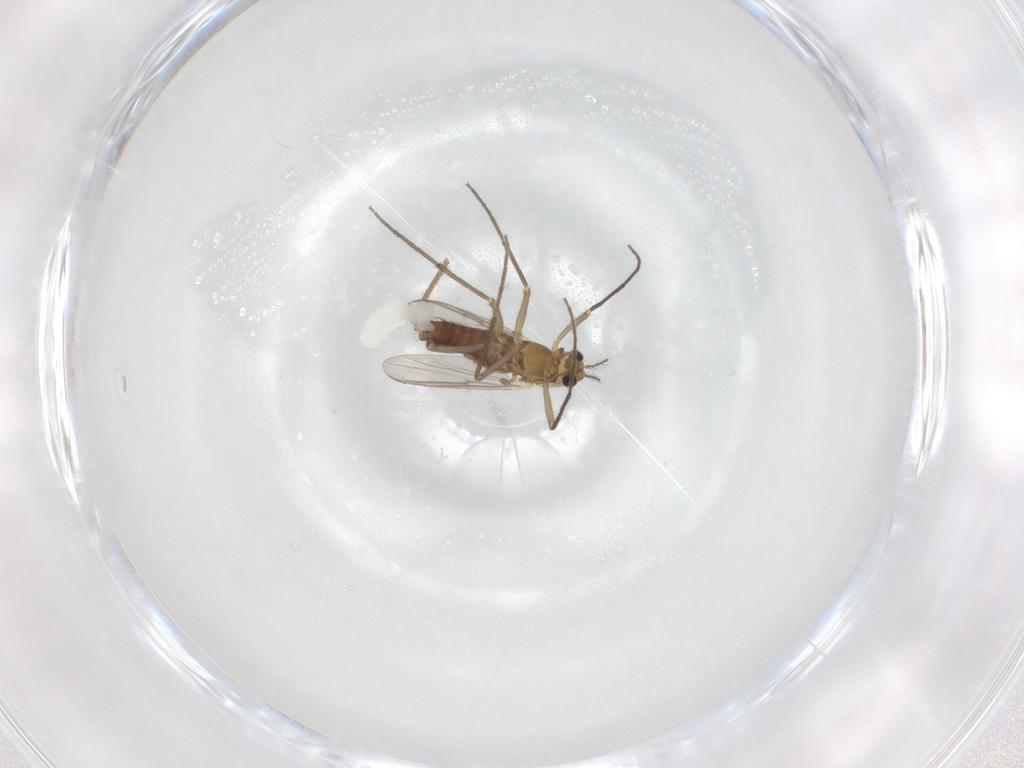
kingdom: Animalia
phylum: Arthropoda
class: Insecta
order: Diptera
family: Chironomidae
